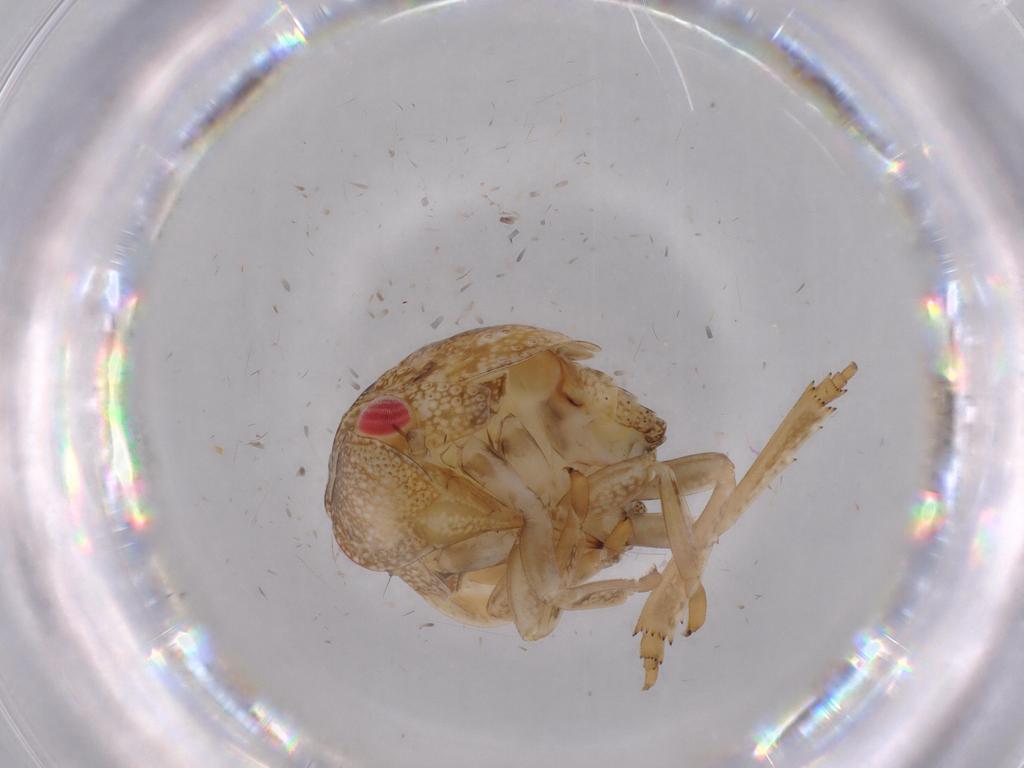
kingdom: Animalia
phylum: Arthropoda
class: Insecta
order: Hemiptera
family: Acanaloniidae
